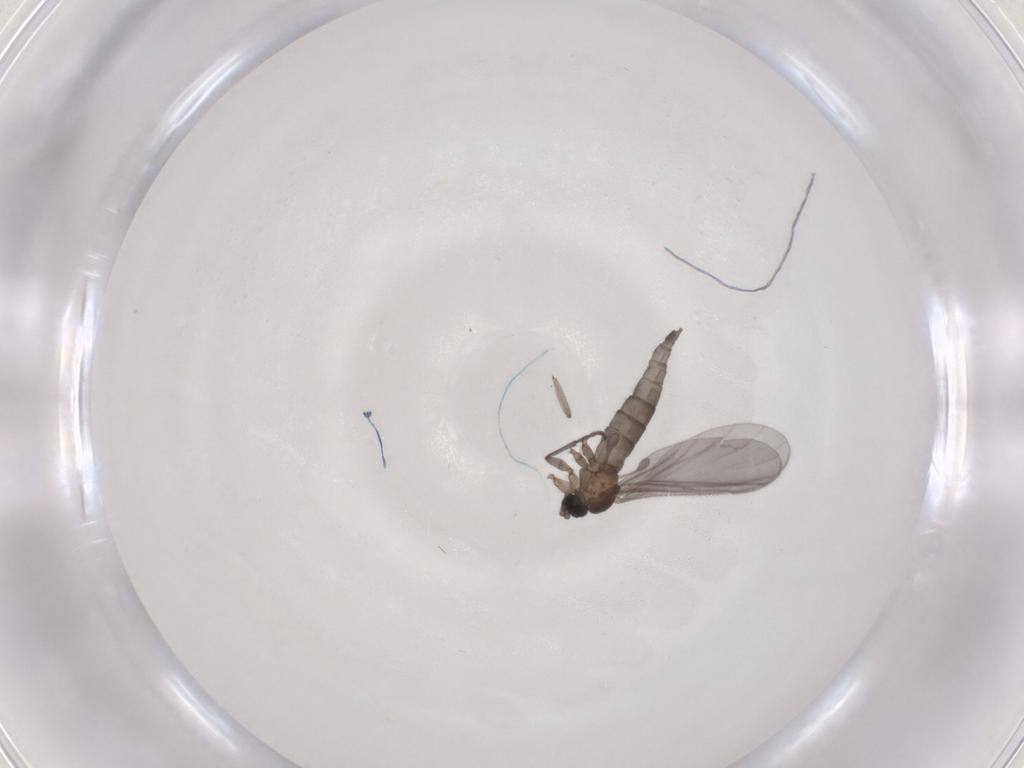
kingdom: Animalia
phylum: Arthropoda
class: Insecta
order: Diptera
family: Sciaridae
